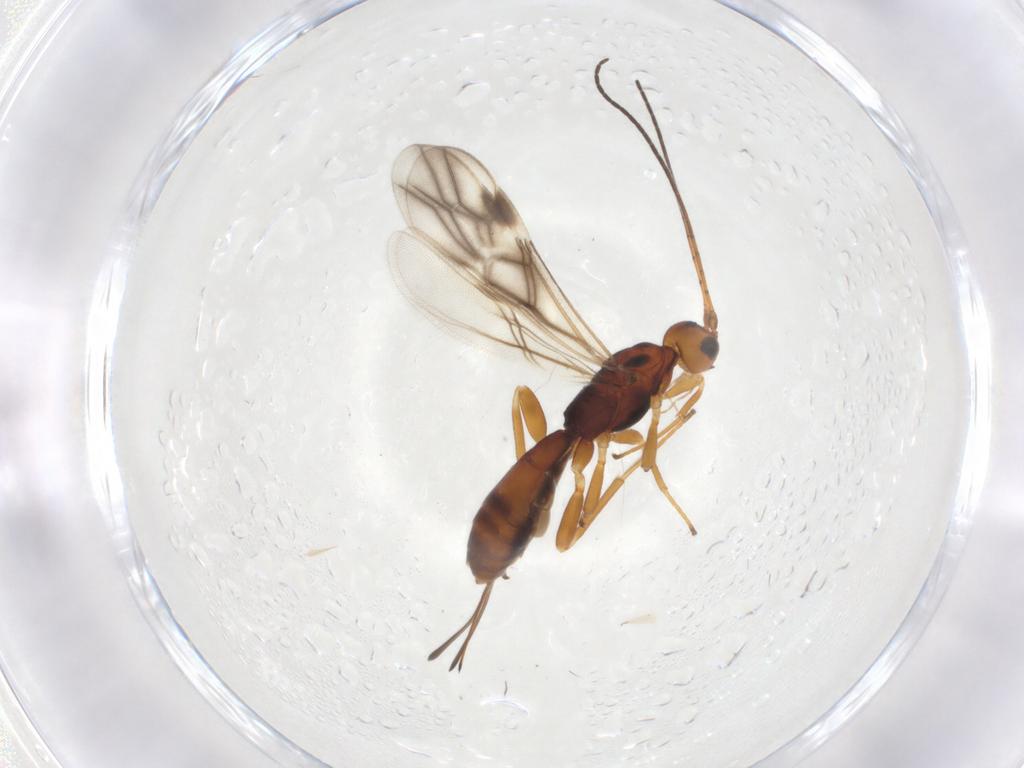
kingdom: Animalia
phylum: Arthropoda
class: Insecta
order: Hymenoptera
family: Braconidae
